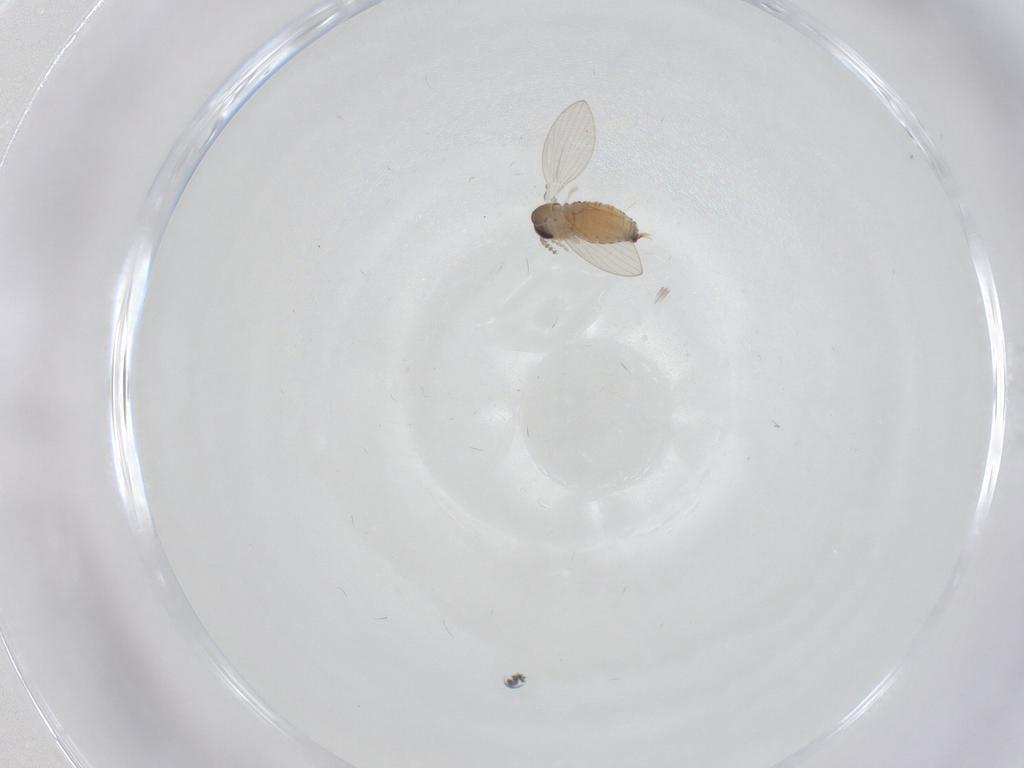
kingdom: Animalia
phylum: Arthropoda
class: Insecta
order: Diptera
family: Psychodidae
